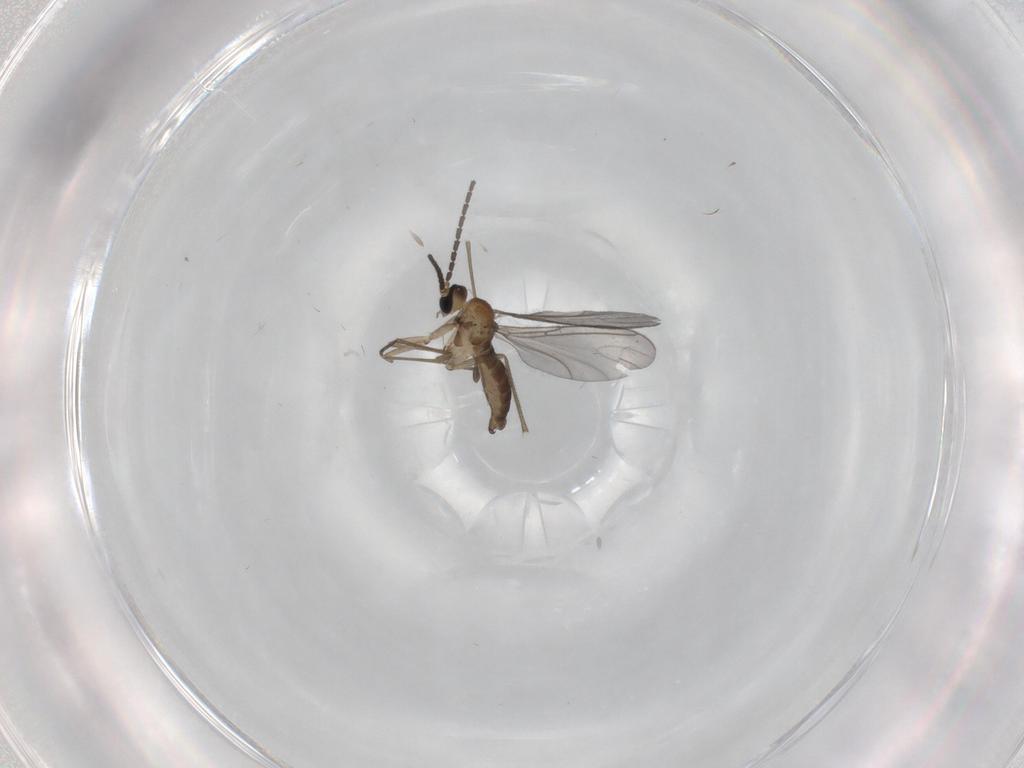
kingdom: Animalia
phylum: Arthropoda
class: Insecta
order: Diptera
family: Sciaridae
